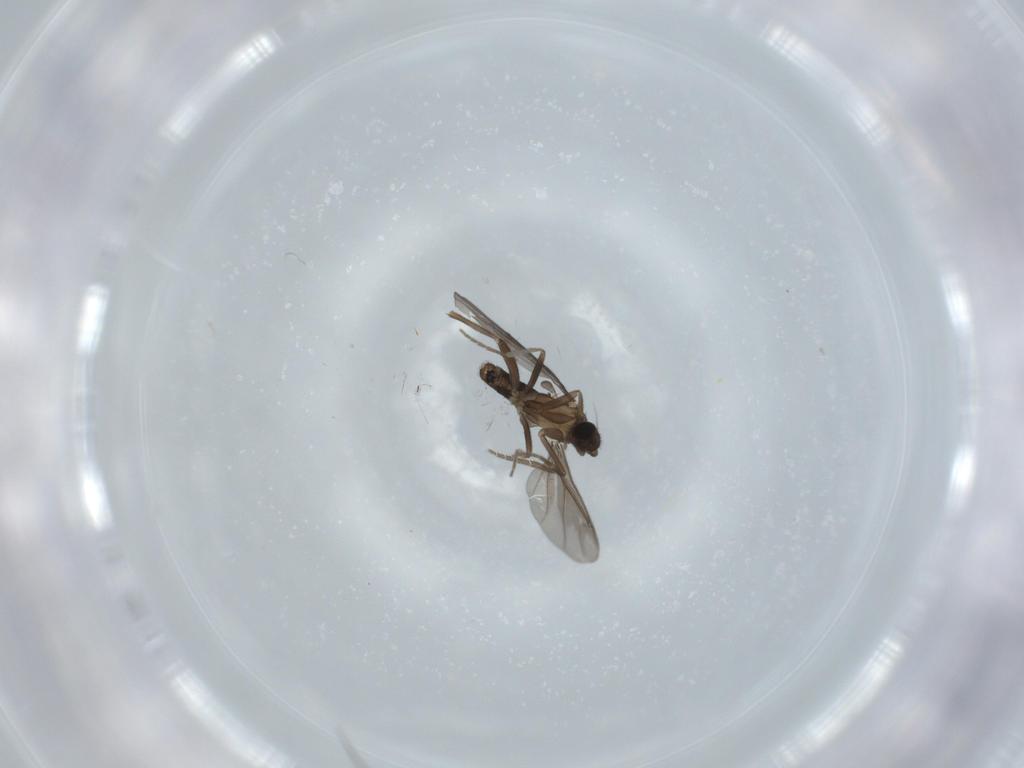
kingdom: Animalia
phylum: Arthropoda
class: Insecta
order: Diptera
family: Phoridae
